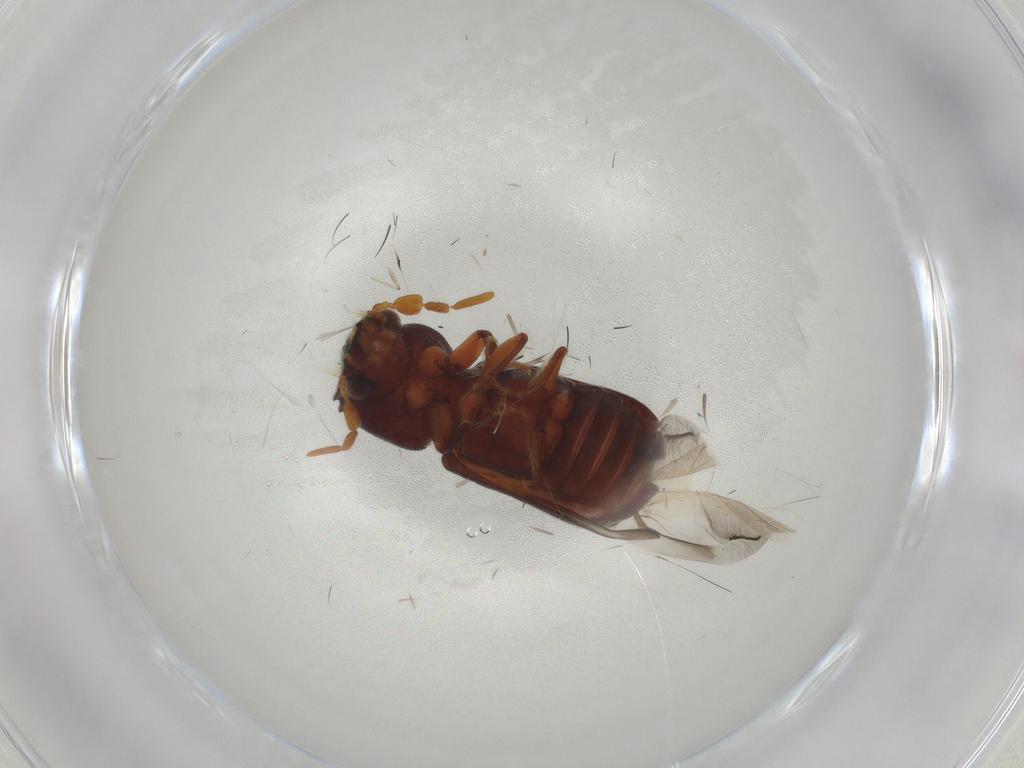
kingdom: Animalia
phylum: Arthropoda
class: Insecta
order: Coleoptera
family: Bostrichidae
